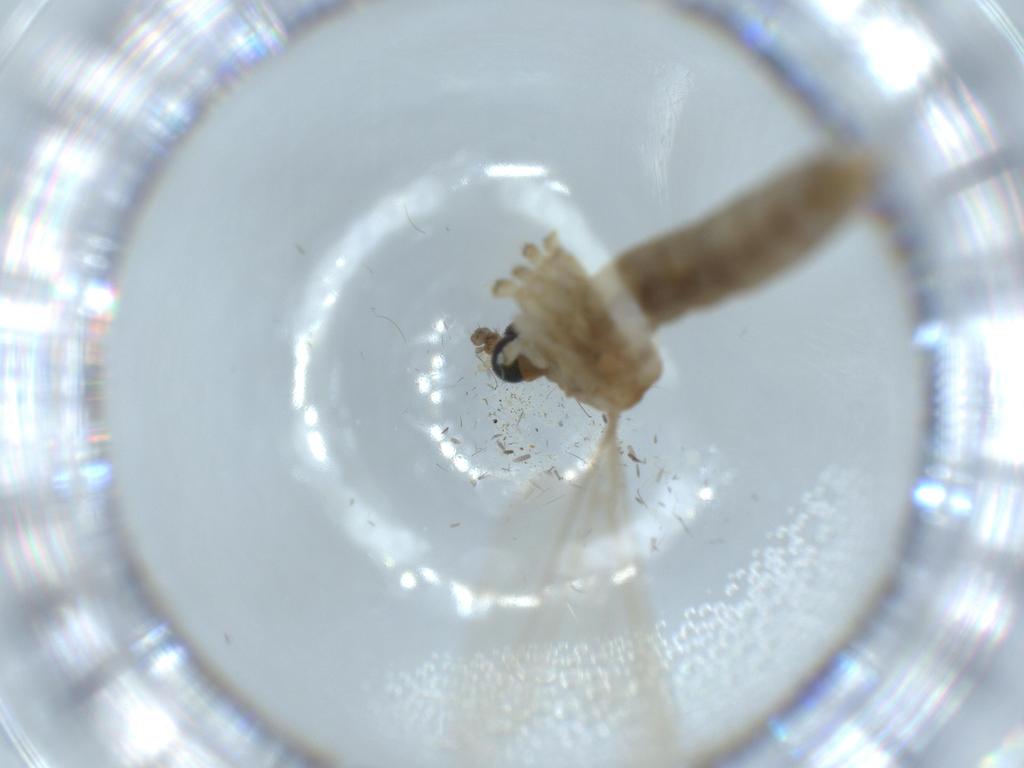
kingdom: Animalia
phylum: Arthropoda
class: Insecta
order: Diptera
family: Limoniidae
